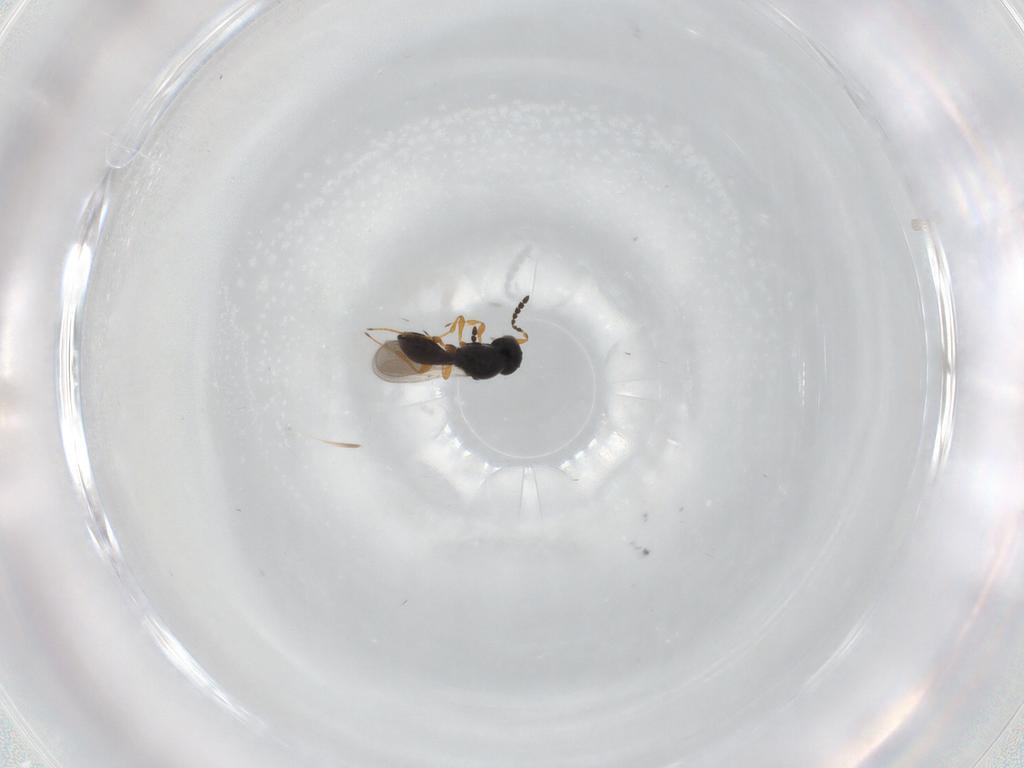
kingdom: Animalia
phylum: Arthropoda
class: Insecta
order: Hymenoptera
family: Platygastridae
